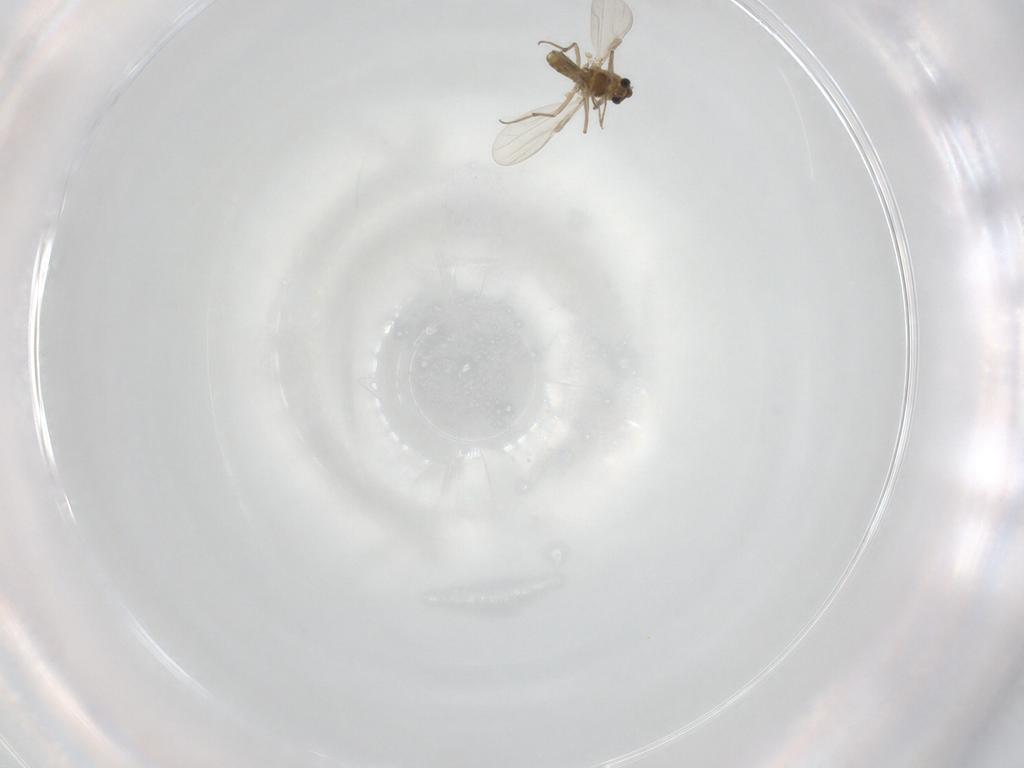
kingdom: Animalia
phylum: Arthropoda
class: Insecta
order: Diptera
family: Chironomidae
